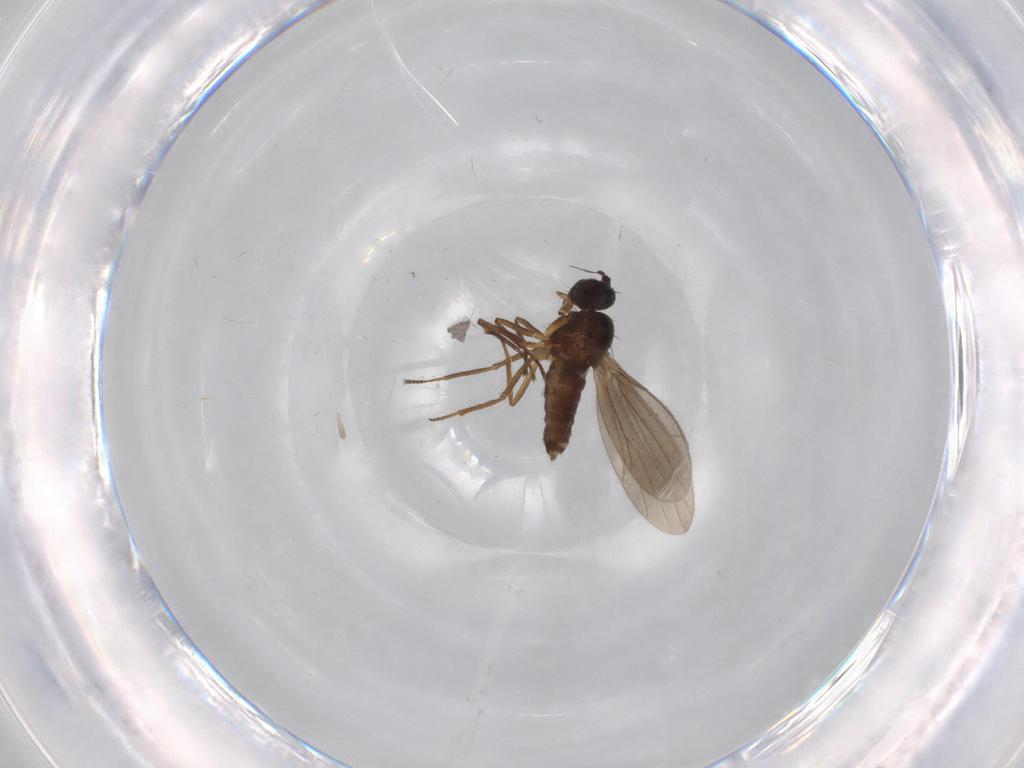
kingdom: Animalia
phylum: Arthropoda
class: Insecta
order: Diptera
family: Empididae
